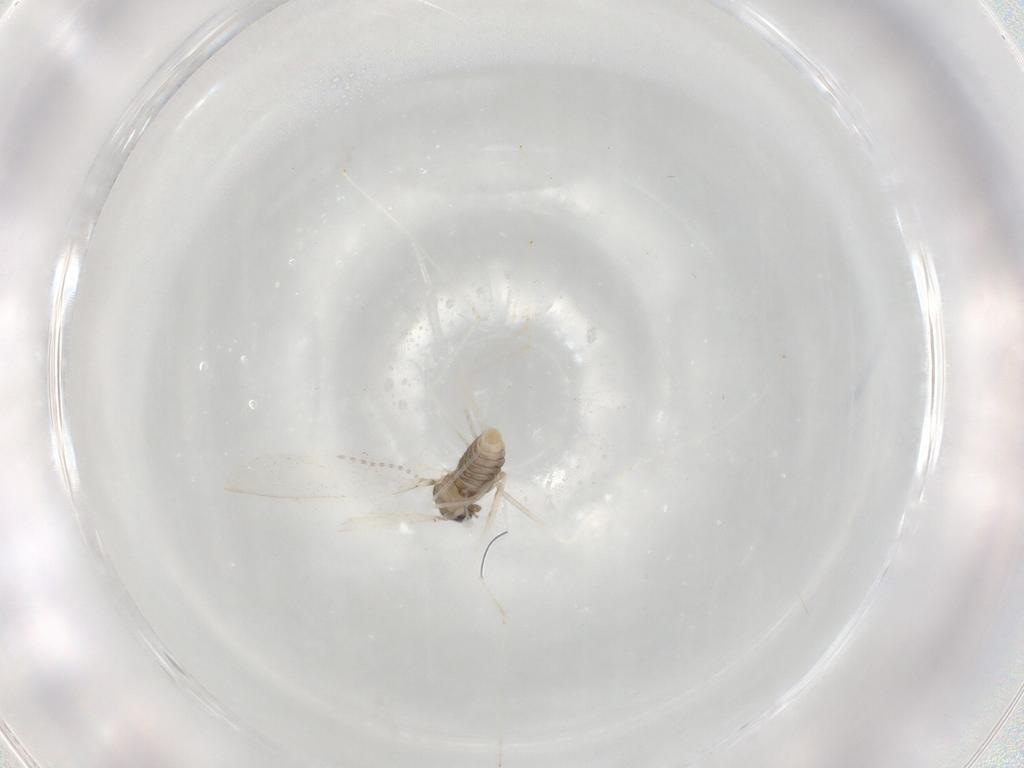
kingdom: Animalia
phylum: Arthropoda
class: Insecta
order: Diptera
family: Cecidomyiidae
